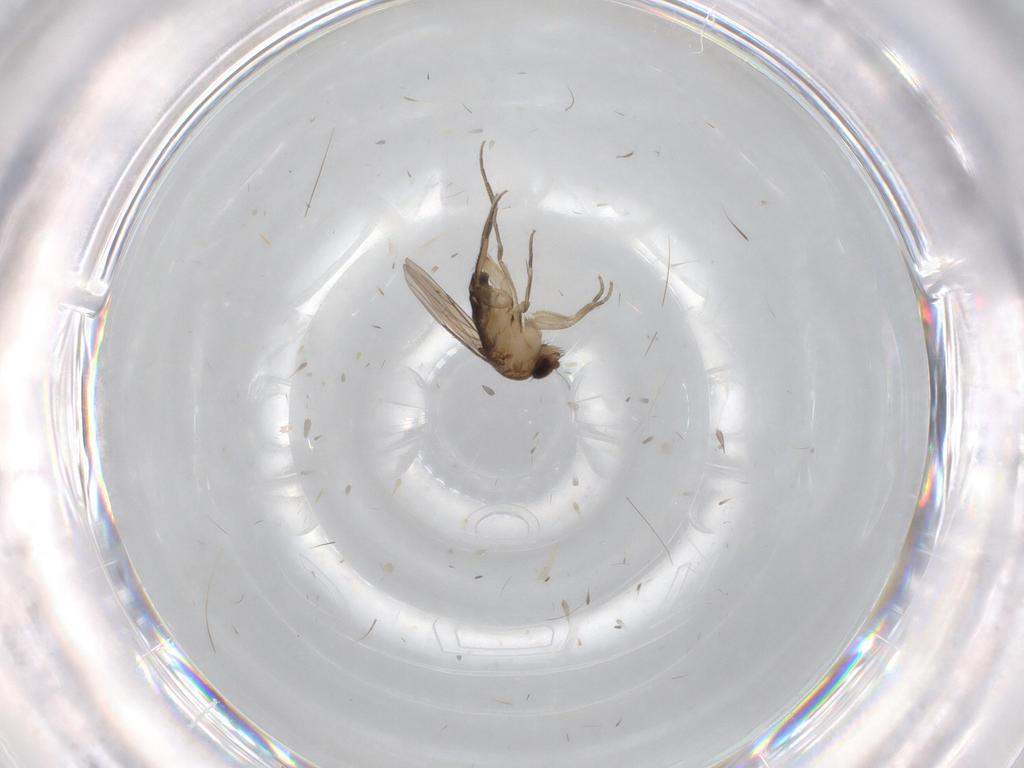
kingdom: Animalia
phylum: Arthropoda
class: Insecta
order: Diptera
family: Phoridae
